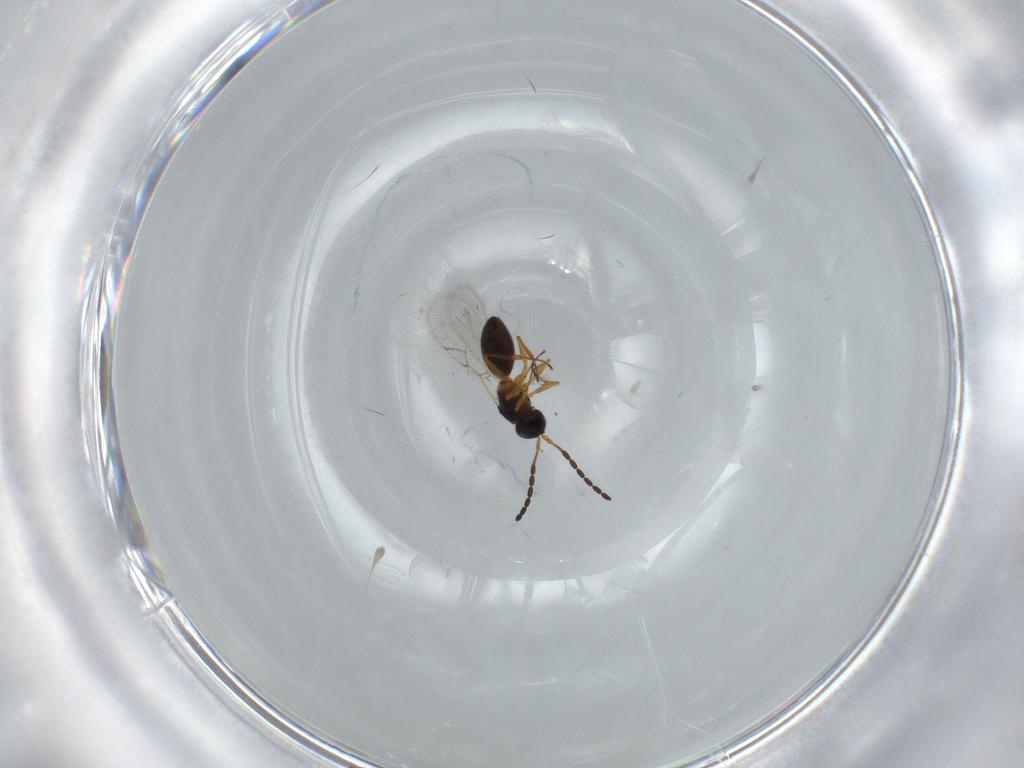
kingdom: Animalia
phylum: Arthropoda
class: Insecta
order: Hymenoptera
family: Figitidae
